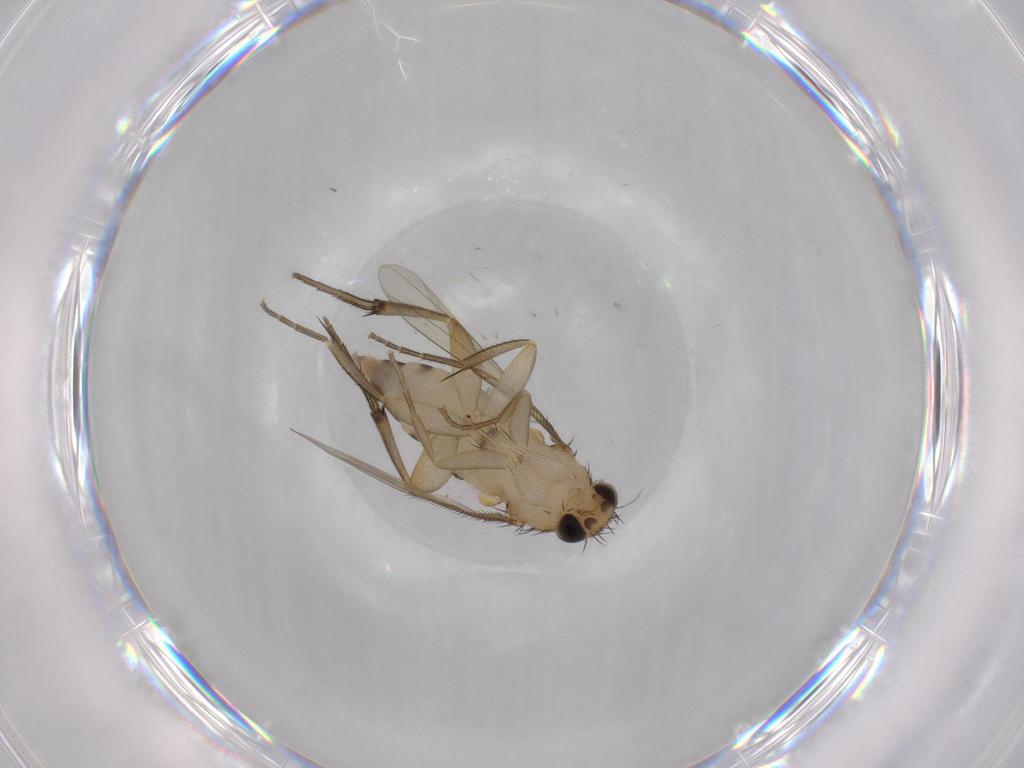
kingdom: Animalia
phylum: Arthropoda
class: Insecta
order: Diptera
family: Phoridae
